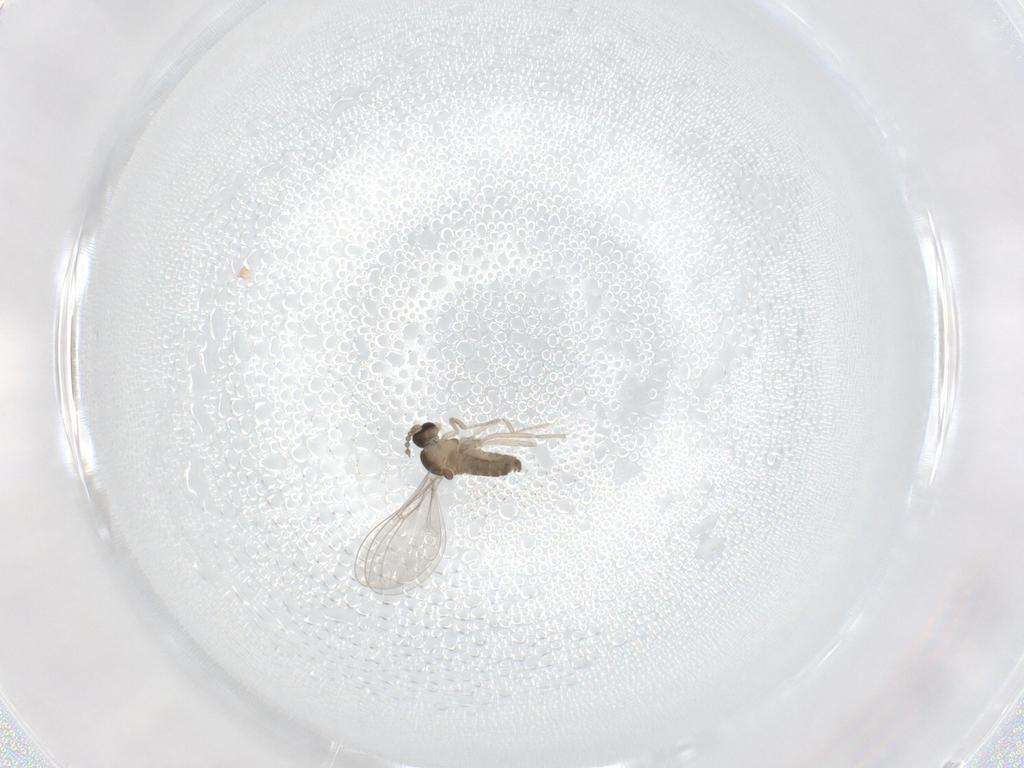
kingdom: Animalia
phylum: Arthropoda
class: Insecta
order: Diptera
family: Cecidomyiidae
